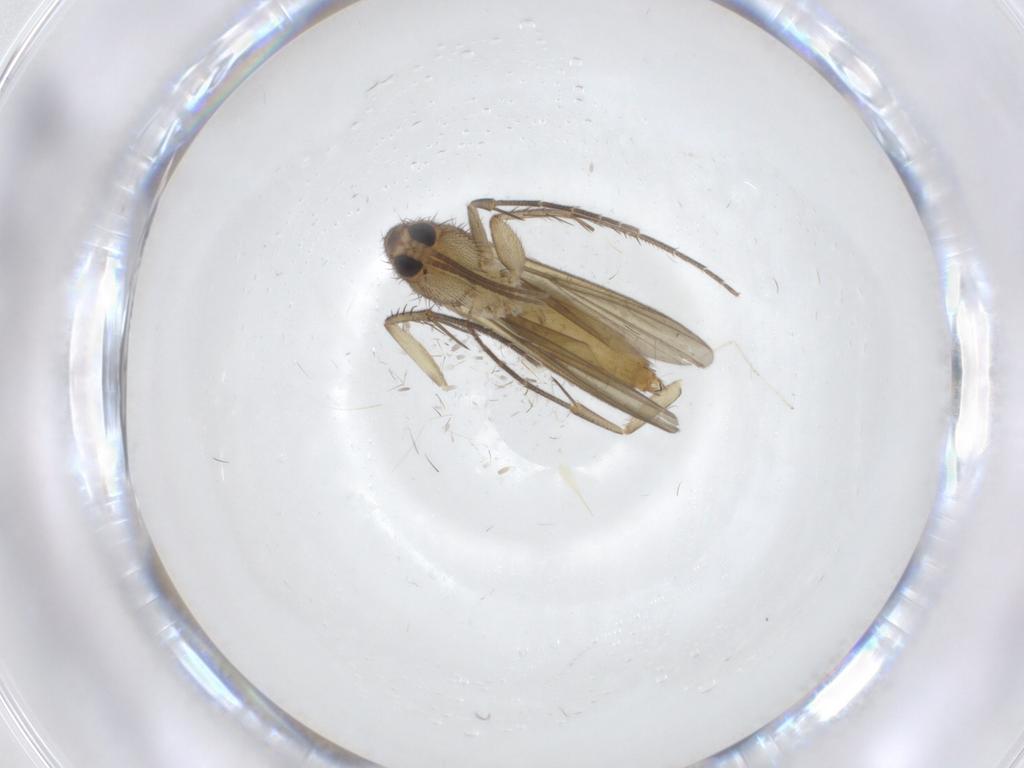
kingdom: Animalia
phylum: Arthropoda
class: Insecta
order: Diptera
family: Mycetophilidae
